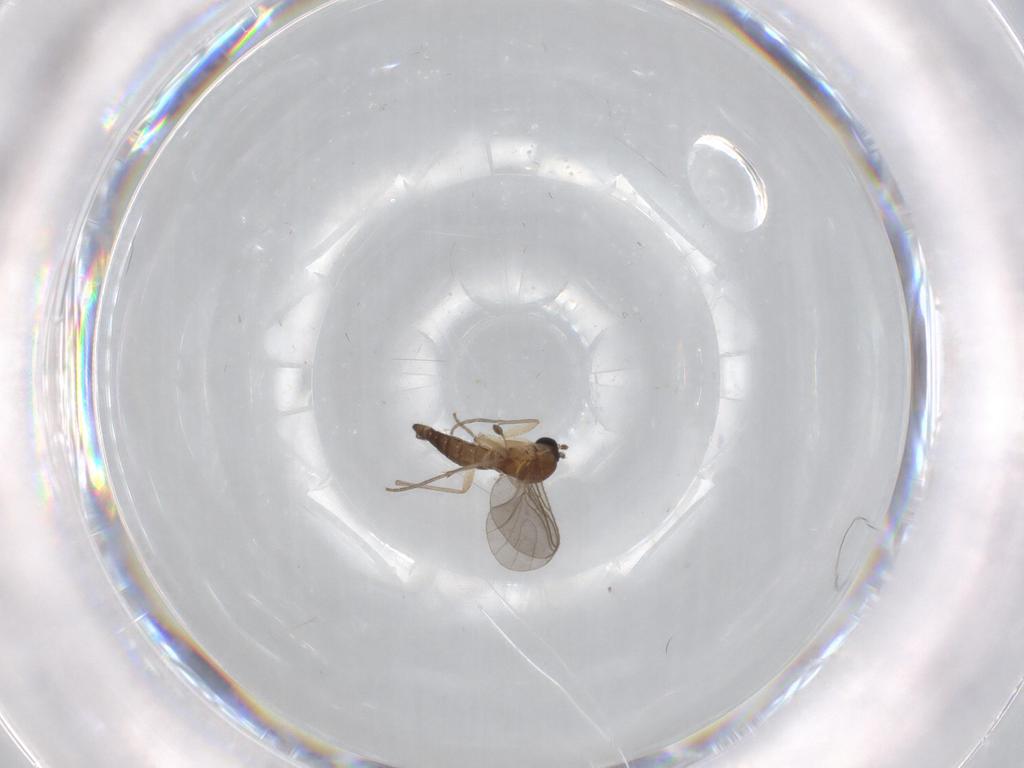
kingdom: Animalia
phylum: Arthropoda
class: Insecta
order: Diptera
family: Sciaridae
